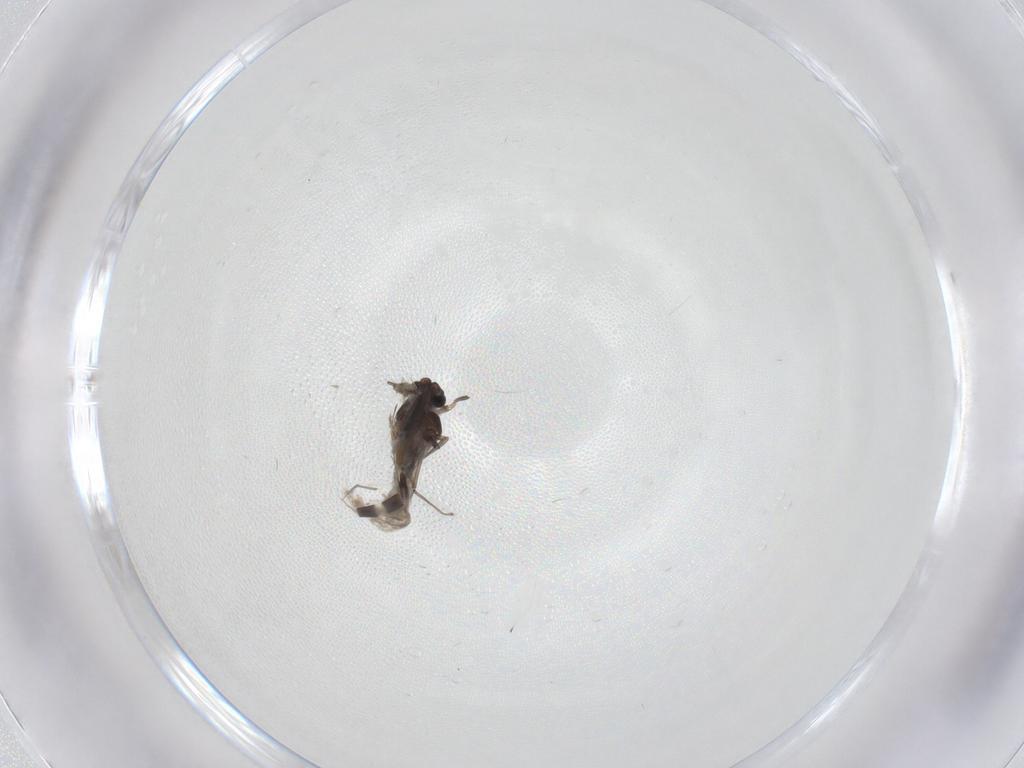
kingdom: Animalia
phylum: Arthropoda
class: Insecta
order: Diptera
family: Chironomidae
